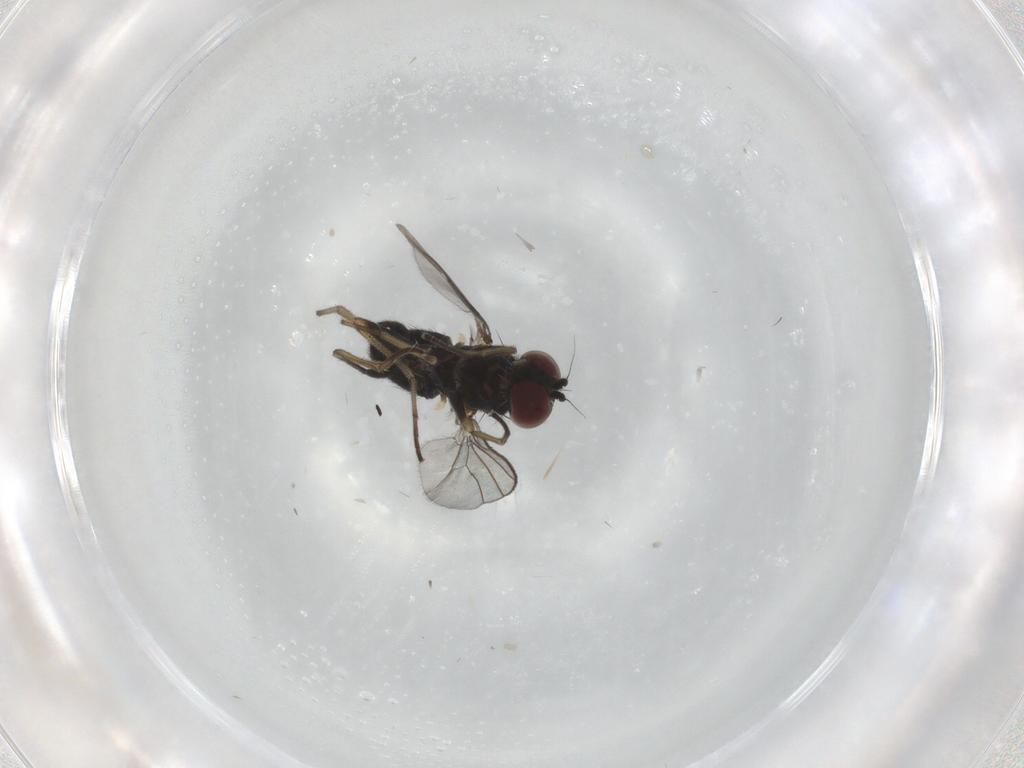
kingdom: Animalia
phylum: Arthropoda
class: Insecta
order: Diptera
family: Dolichopodidae
